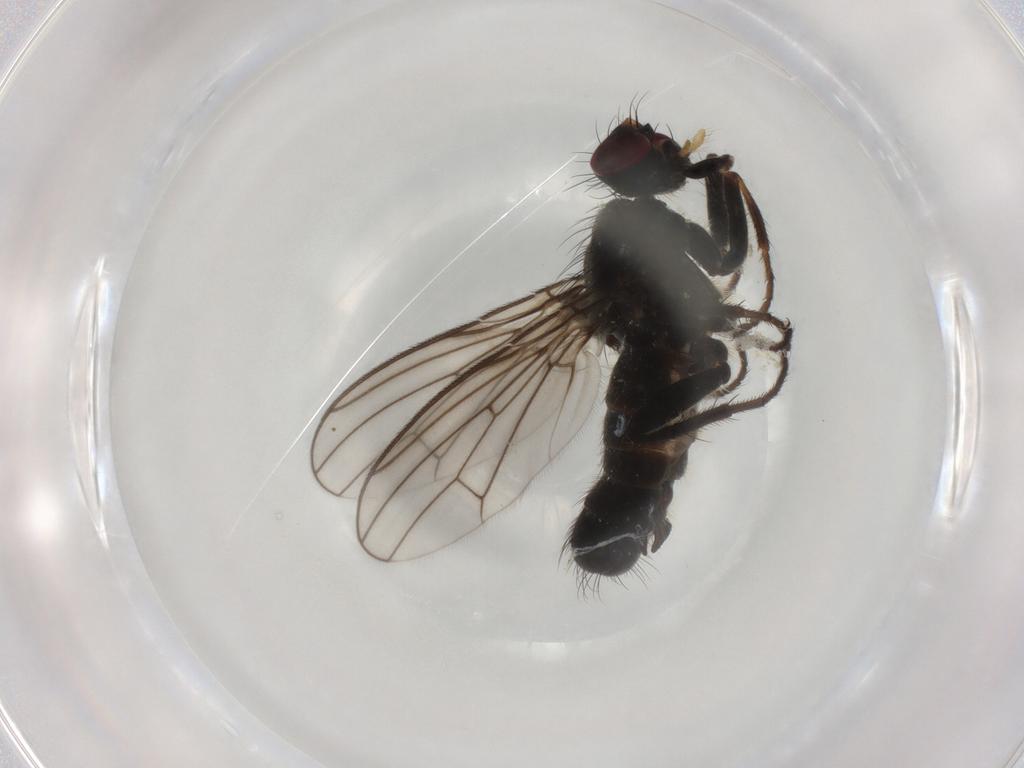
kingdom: Animalia
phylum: Arthropoda
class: Insecta
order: Diptera
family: Scathophagidae
